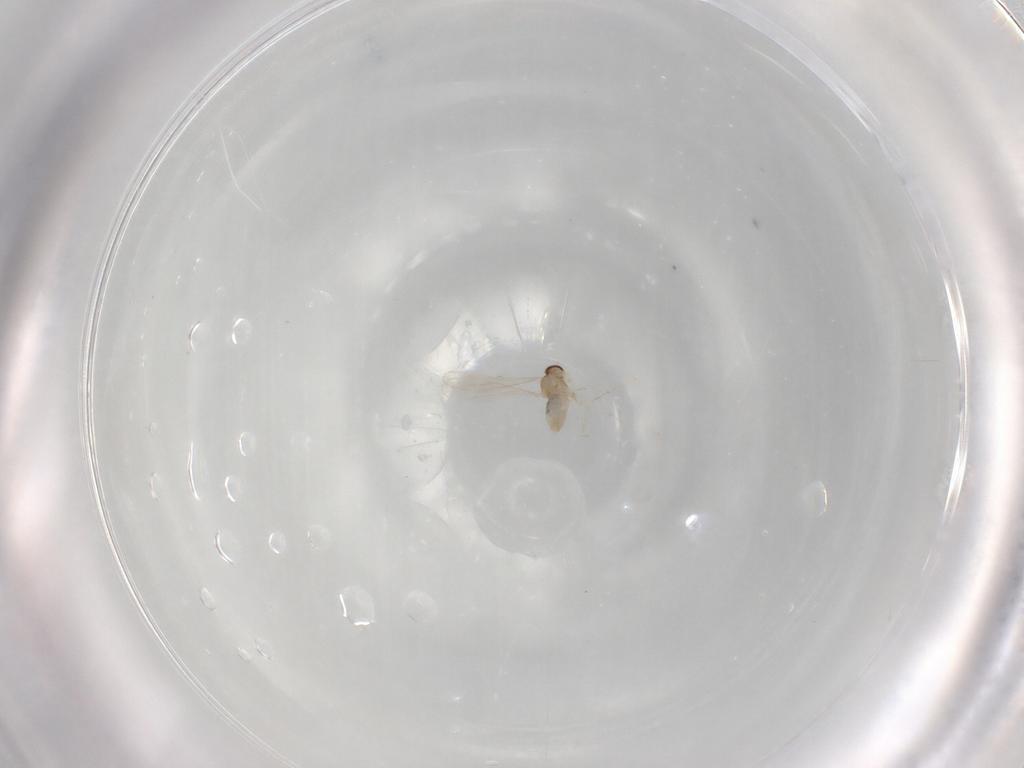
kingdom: Animalia
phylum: Arthropoda
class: Insecta
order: Diptera
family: Cecidomyiidae
